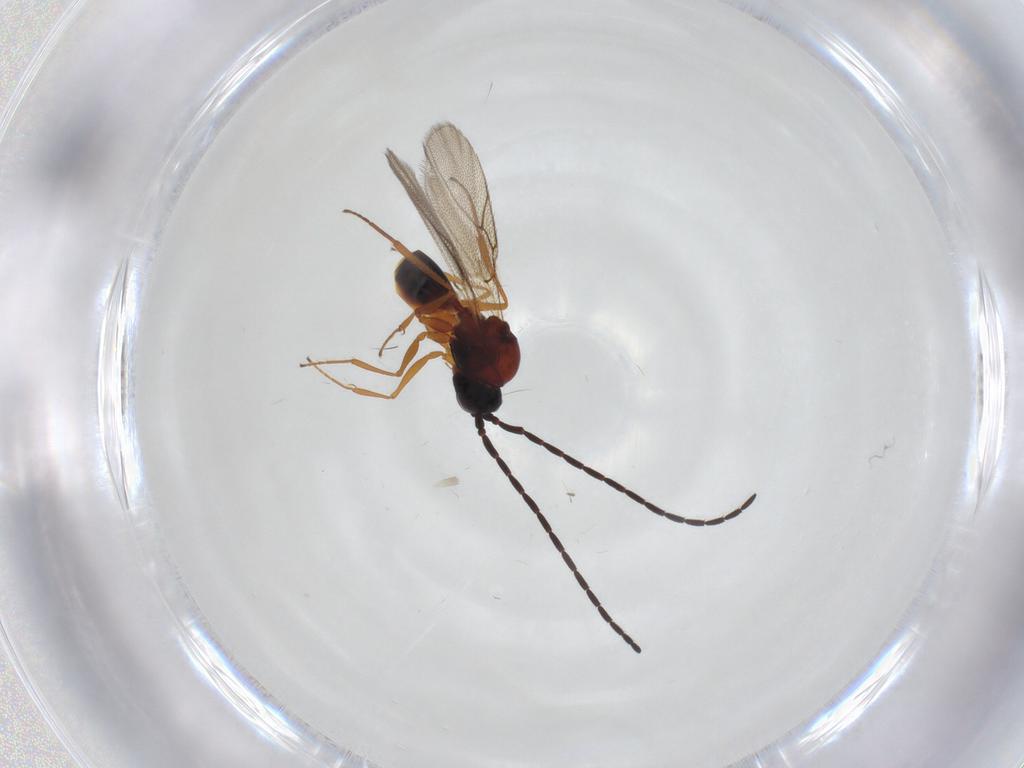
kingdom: Animalia
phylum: Arthropoda
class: Insecta
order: Hymenoptera
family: Figitidae
